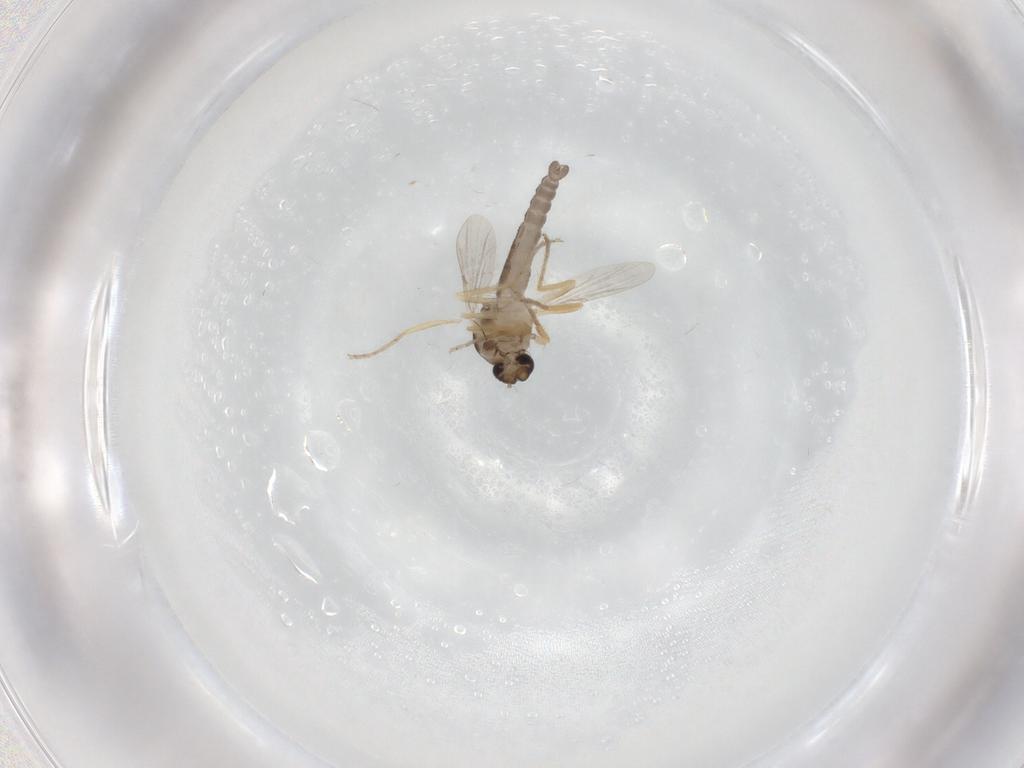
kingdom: Animalia
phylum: Arthropoda
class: Insecta
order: Diptera
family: Ceratopogonidae
